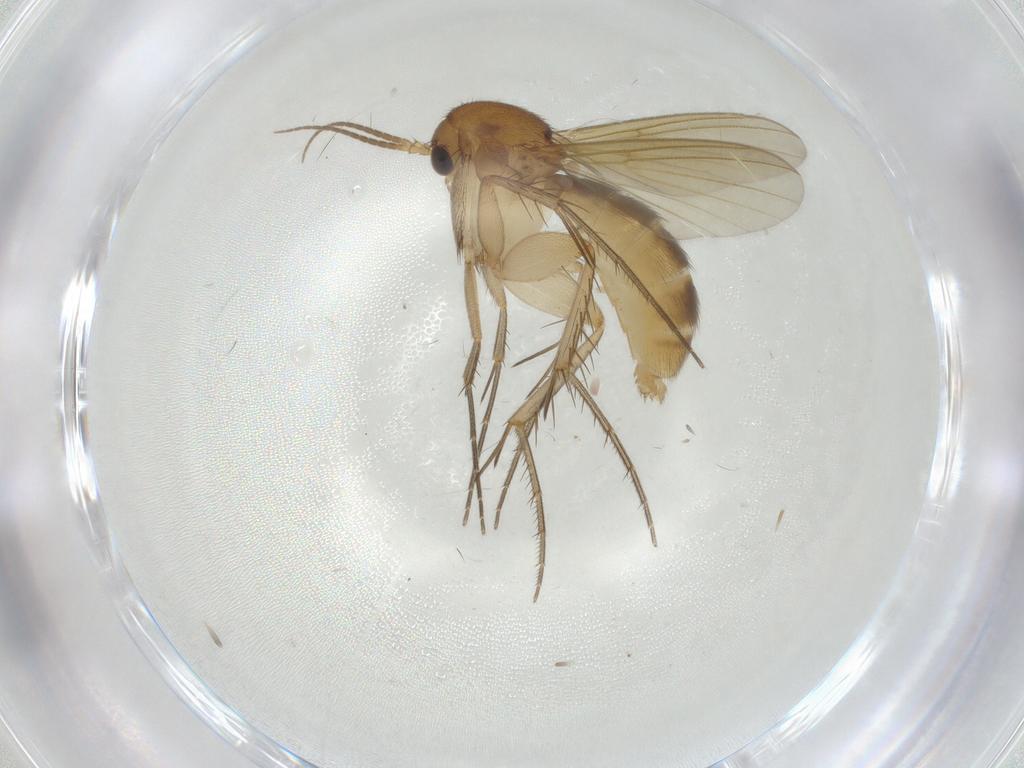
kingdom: Animalia
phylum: Arthropoda
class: Insecta
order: Diptera
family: Mycetophilidae
